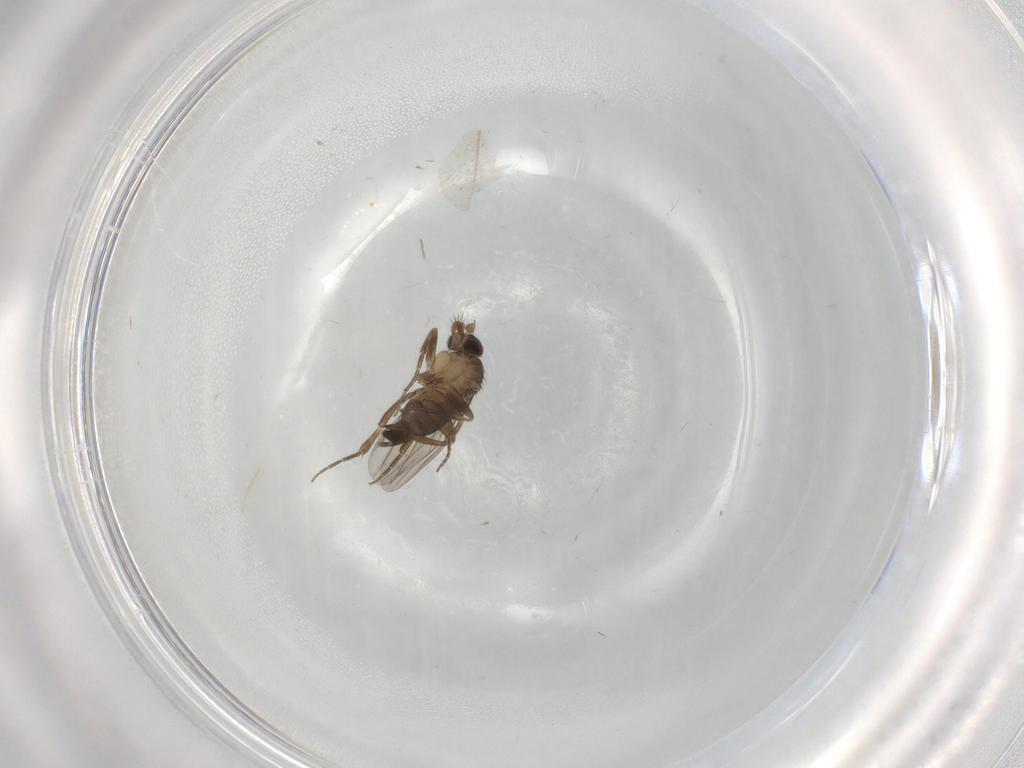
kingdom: Animalia
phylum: Arthropoda
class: Insecta
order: Diptera
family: Phoridae
